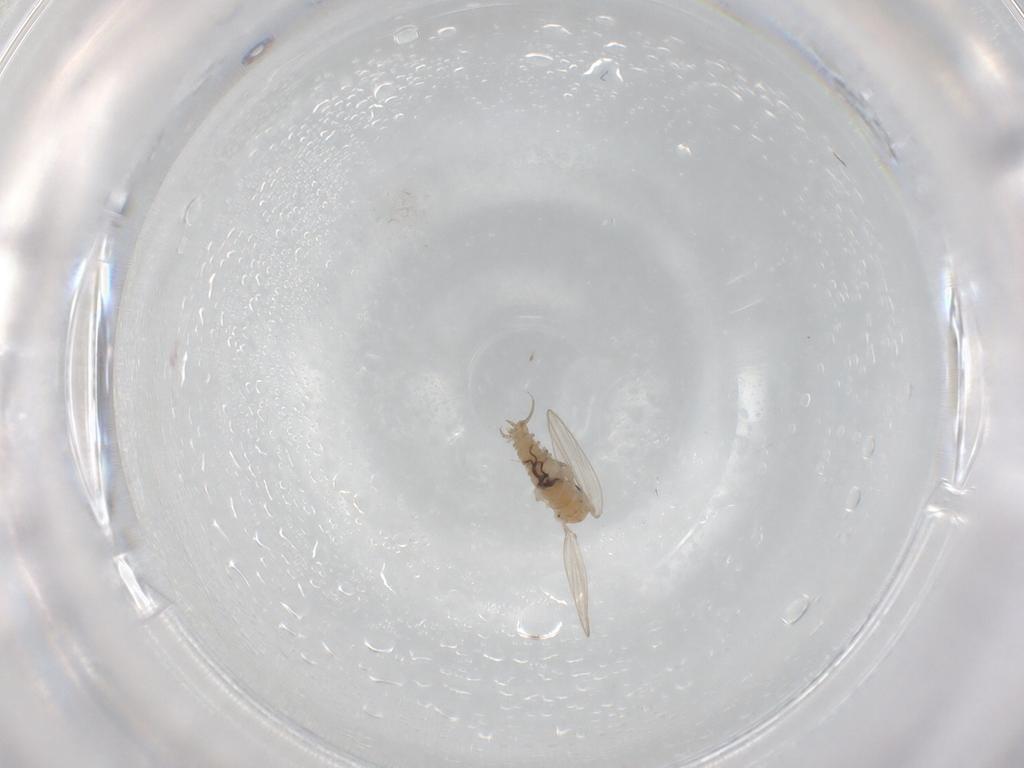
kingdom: Animalia
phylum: Arthropoda
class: Insecta
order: Diptera
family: Psychodidae
